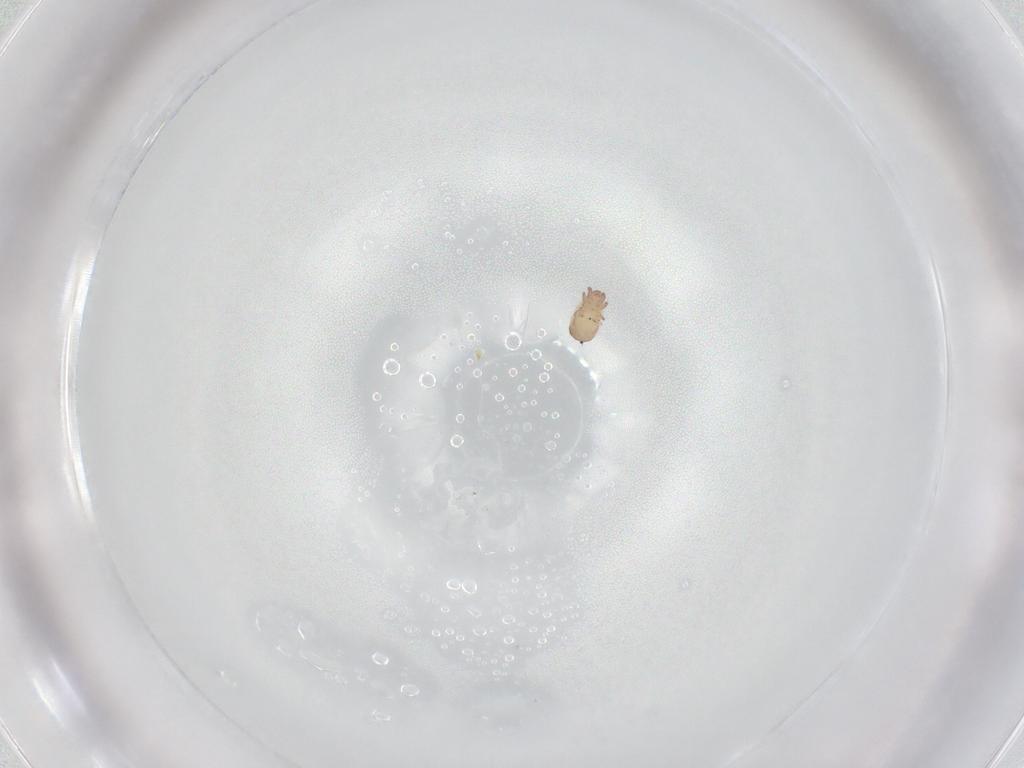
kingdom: Animalia
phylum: Arthropoda
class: Arachnida
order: Sarcoptiformes
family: Trhypochthoniidae
